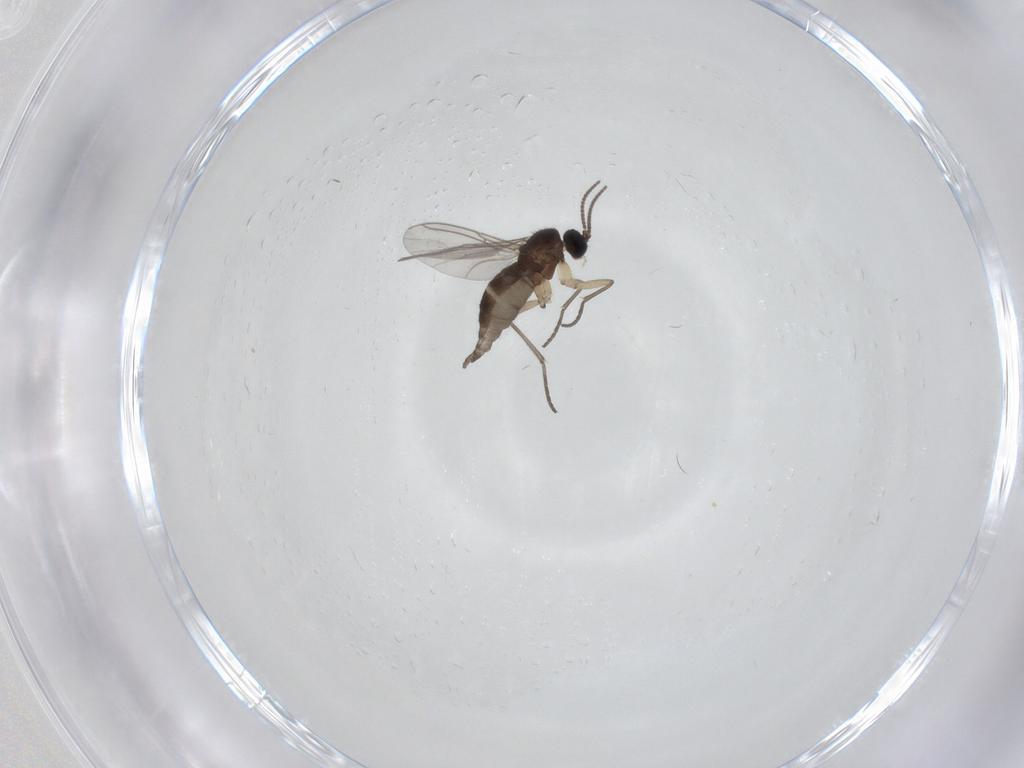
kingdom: Animalia
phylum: Arthropoda
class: Insecta
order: Diptera
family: Sciaridae
